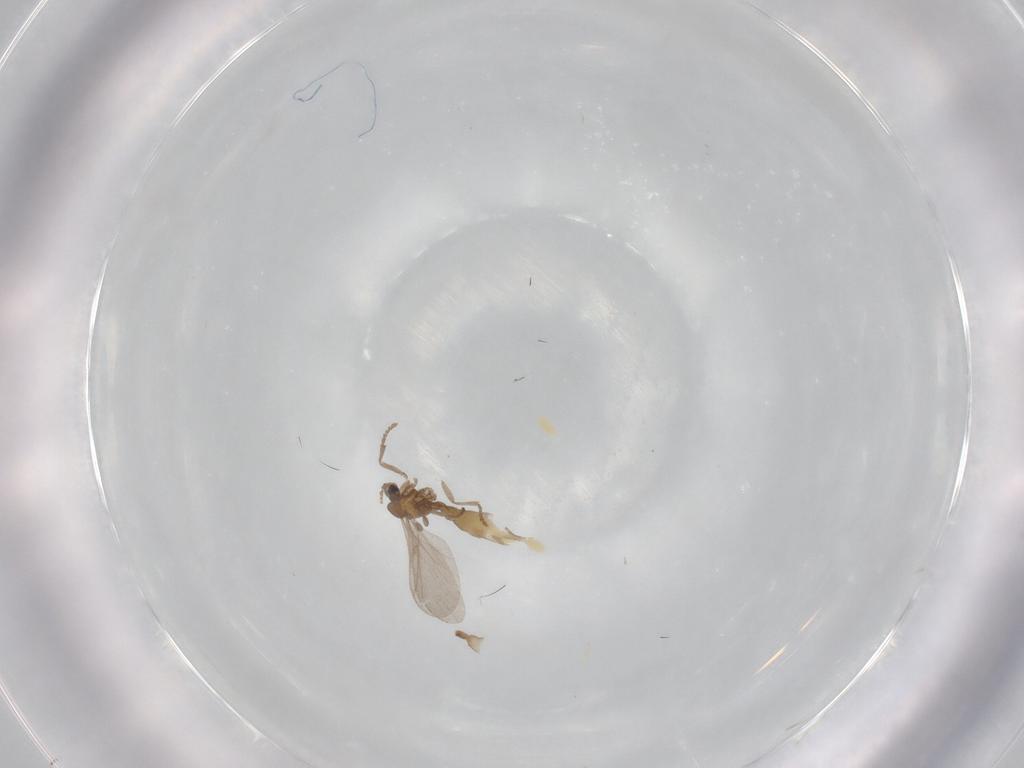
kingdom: Animalia
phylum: Arthropoda
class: Insecta
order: Diptera
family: Sciaridae
